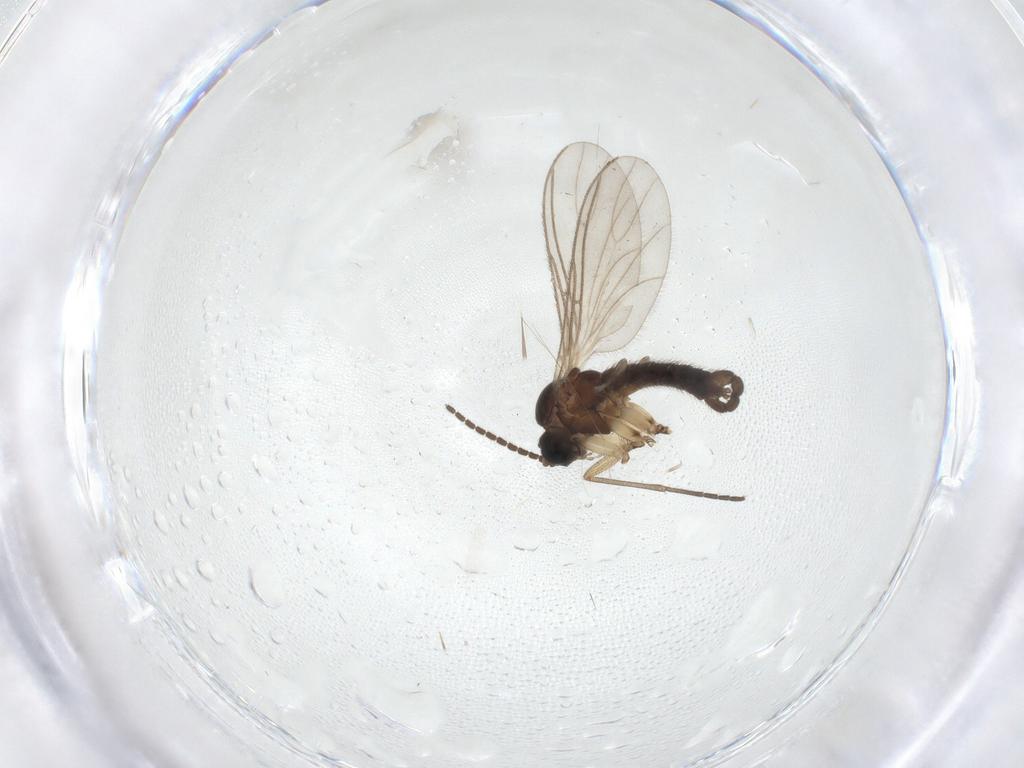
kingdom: Animalia
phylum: Arthropoda
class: Insecta
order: Diptera
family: Sciaridae
